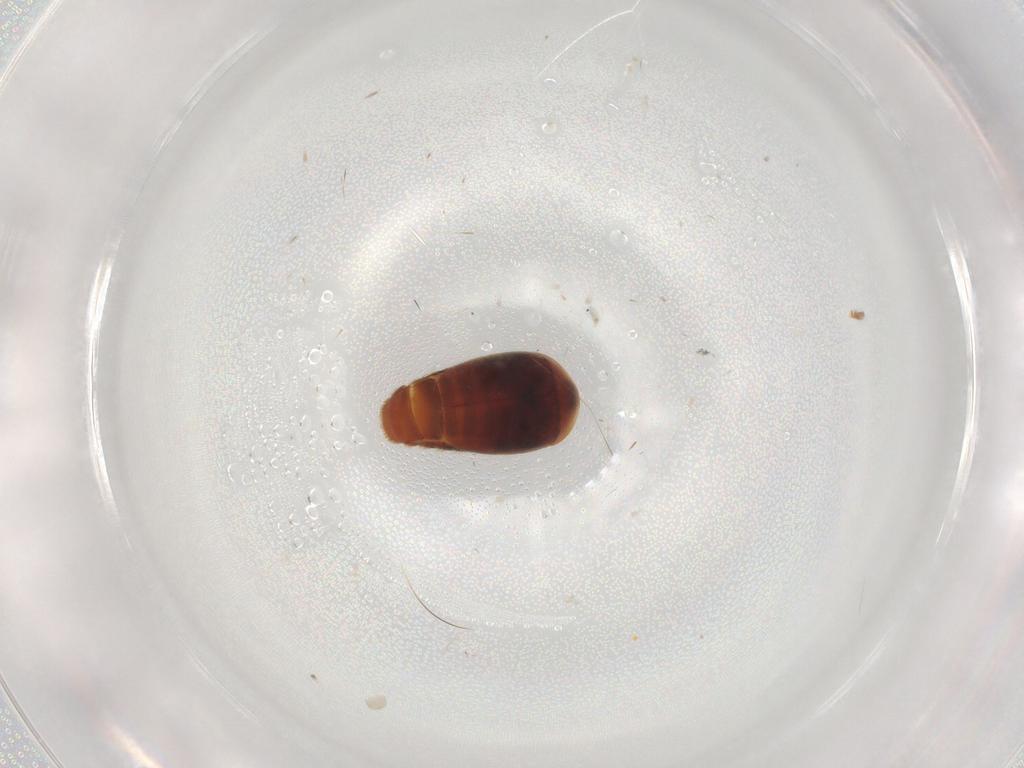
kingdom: Animalia
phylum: Arthropoda
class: Insecta
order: Coleoptera
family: Corylophidae
